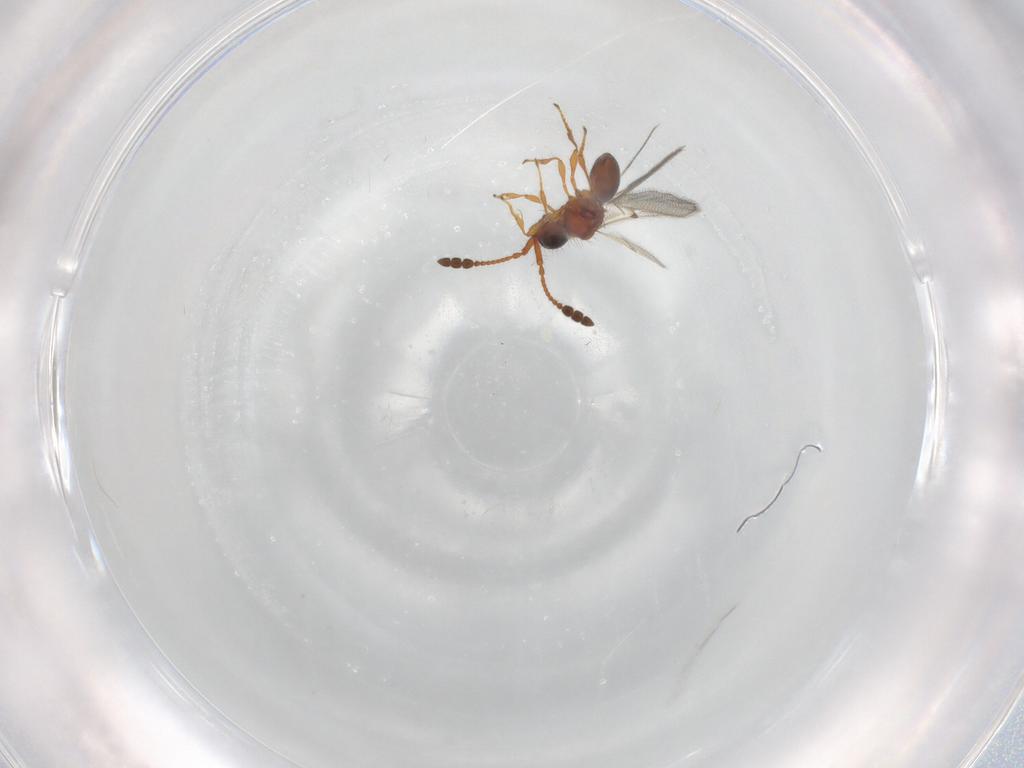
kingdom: Animalia
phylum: Arthropoda
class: Insecta
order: Hymenoptera
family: Diapriidae
